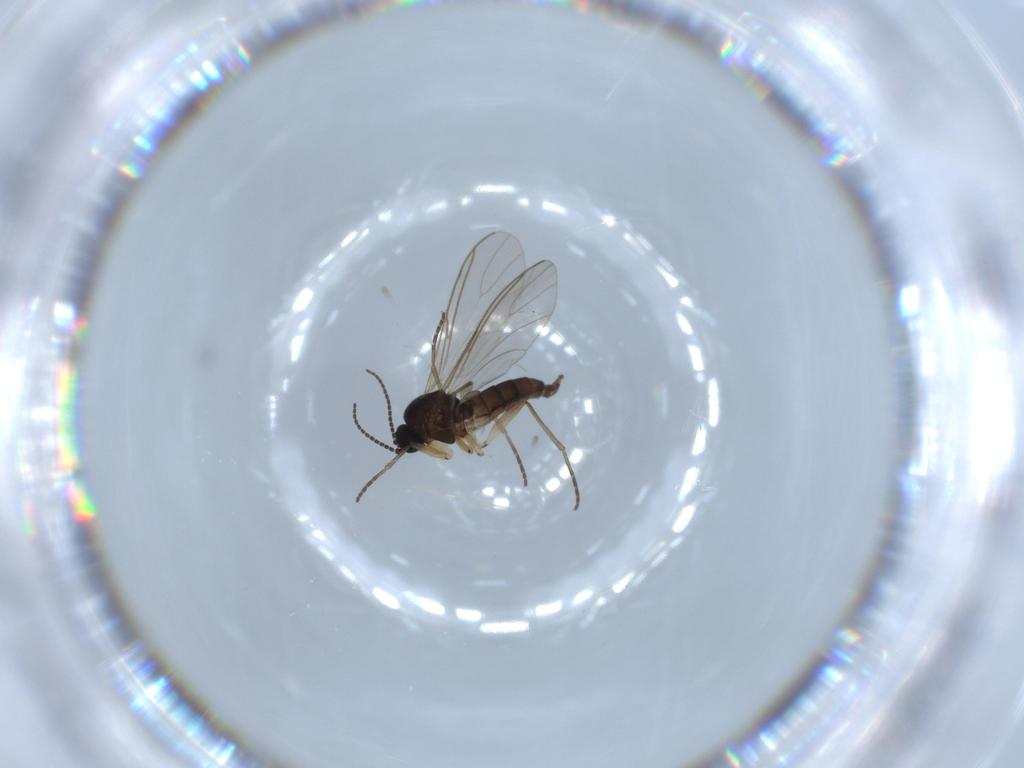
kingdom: Animalia
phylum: Arthropoda
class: Insecta
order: Diptera
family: Sciaridae
